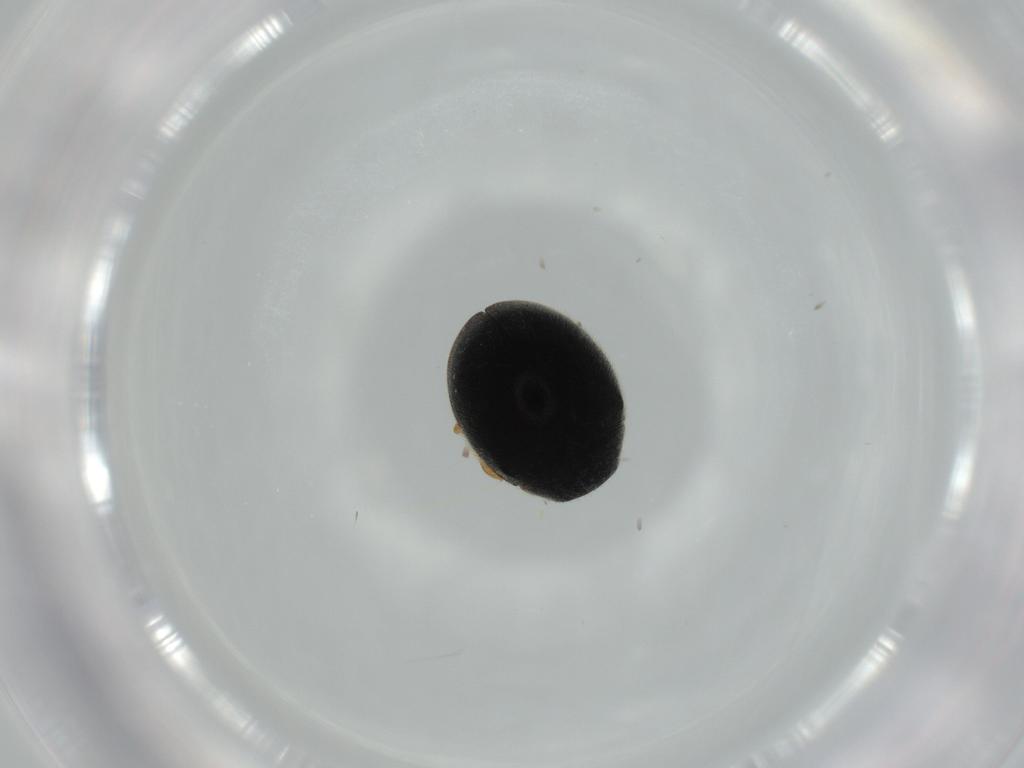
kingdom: Animalia
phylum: Arthropoda
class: Insecta
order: Coleoptera
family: Coccinellidae
